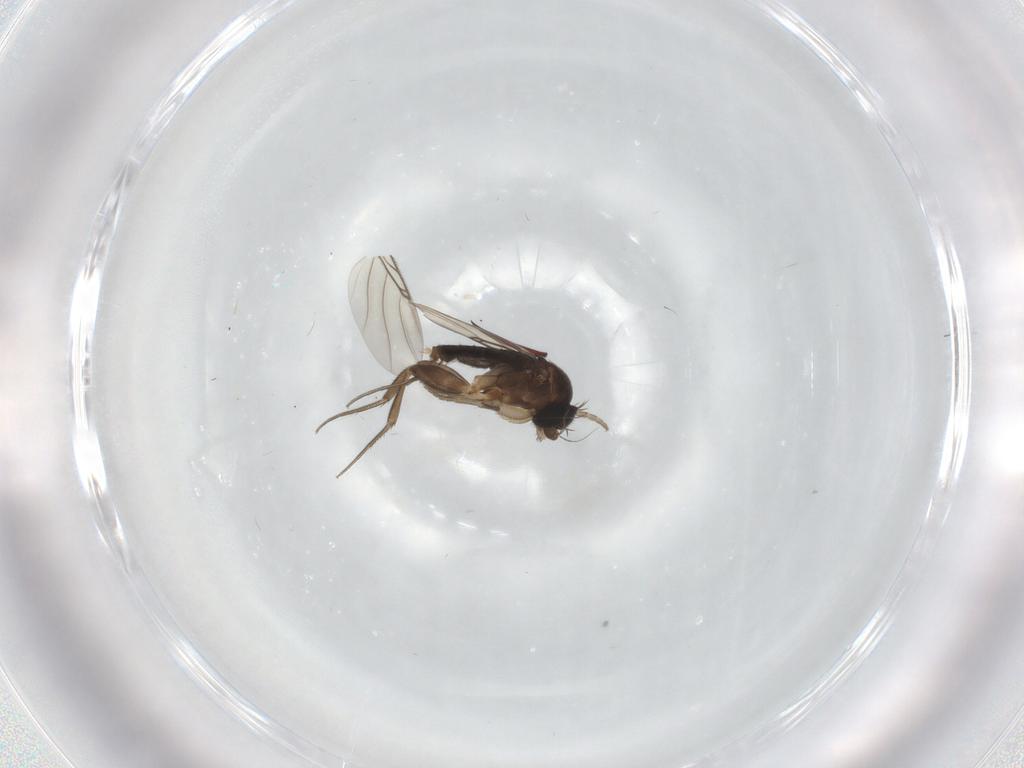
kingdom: Animalia
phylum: Arthropoda
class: Insecta
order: Diptera
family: Phoridae
